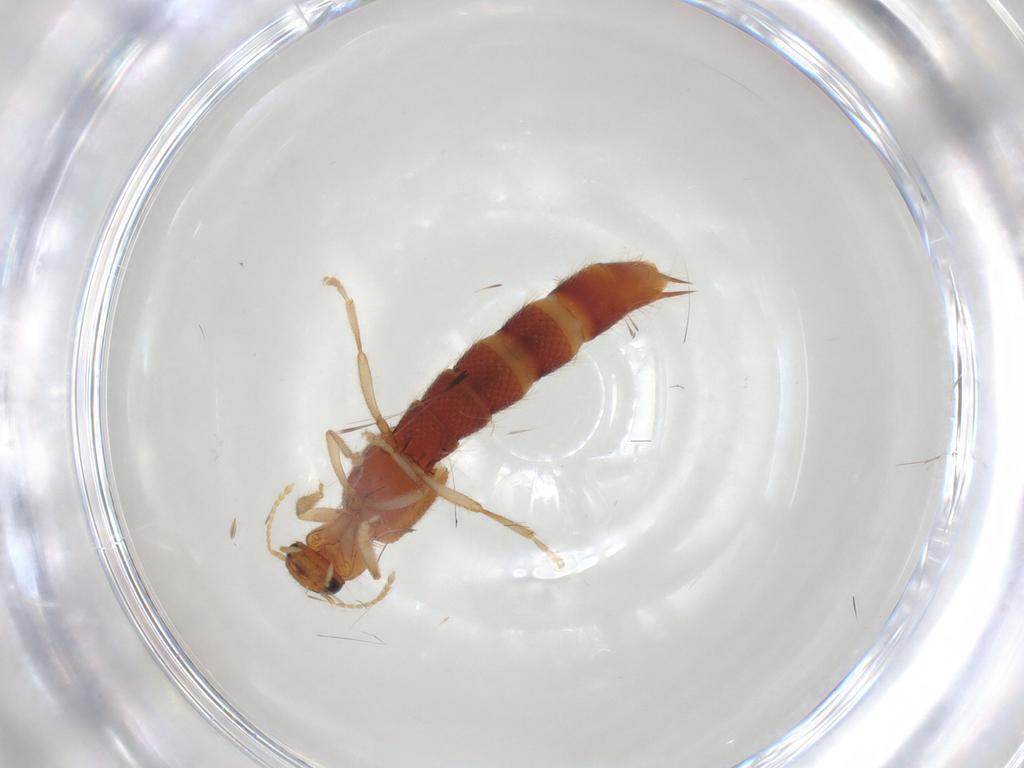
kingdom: Animalia
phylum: Arthropoda
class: Insecta
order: Coleoptera
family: Staphylinidae
